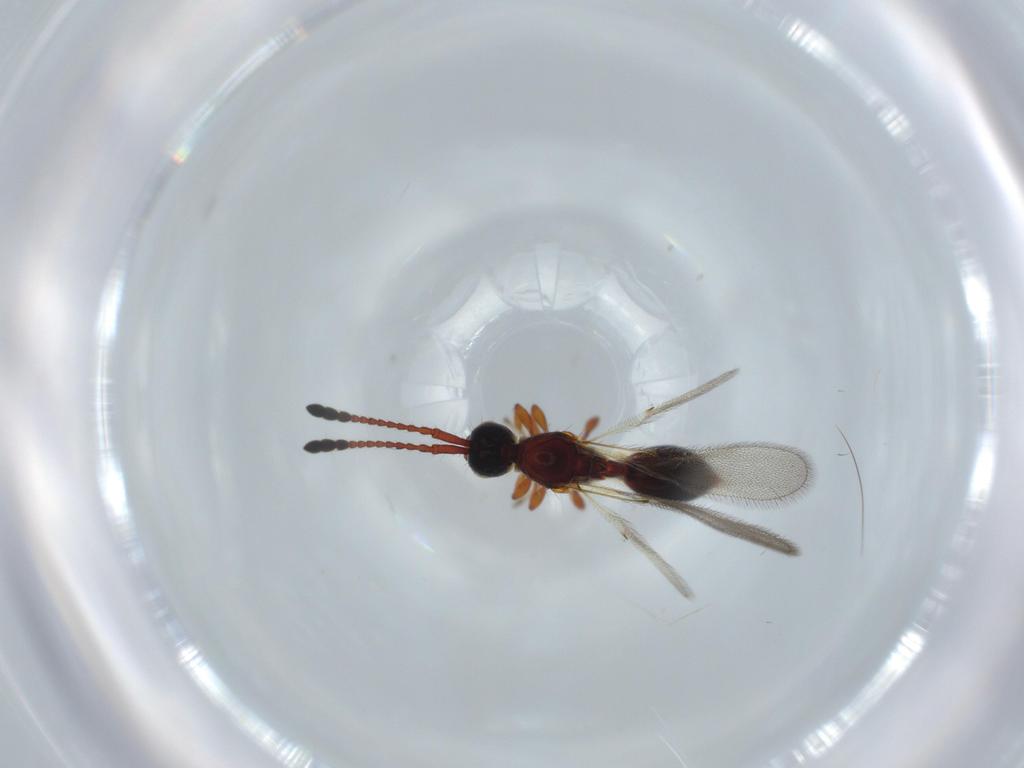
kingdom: Animalia
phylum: Arthropoda
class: Insecta
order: Hymenoptera
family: Diapriidae
